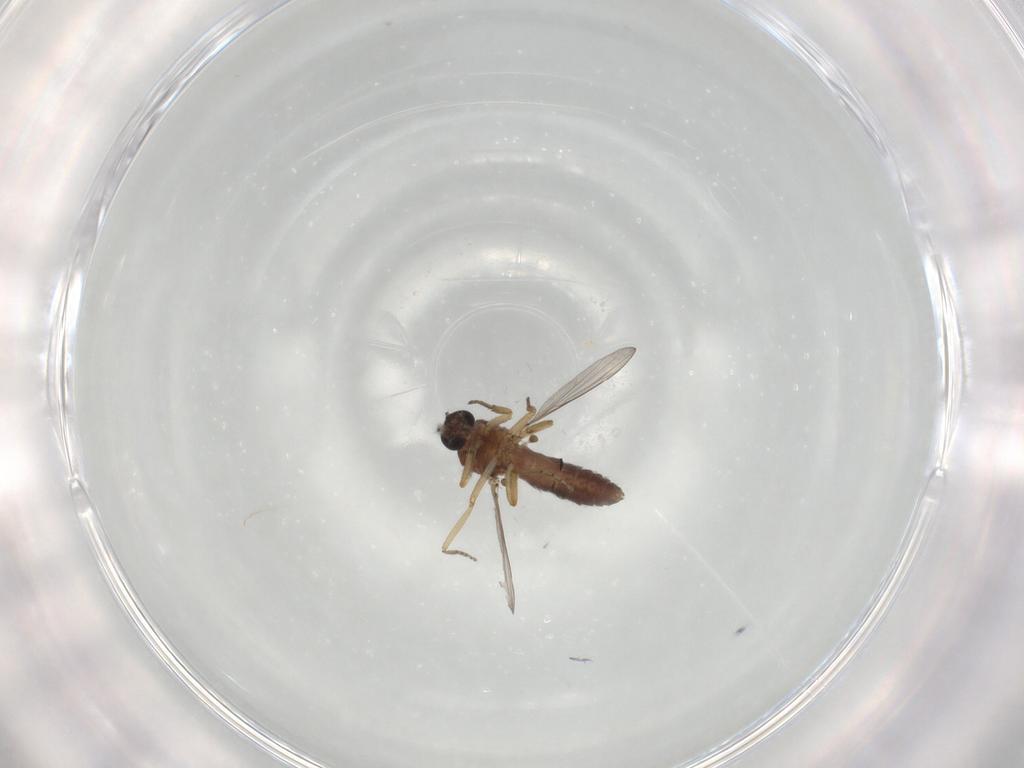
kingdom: Animalia
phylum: Arthropoda
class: Insecta
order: Diptera
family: Ceratopogonidae
